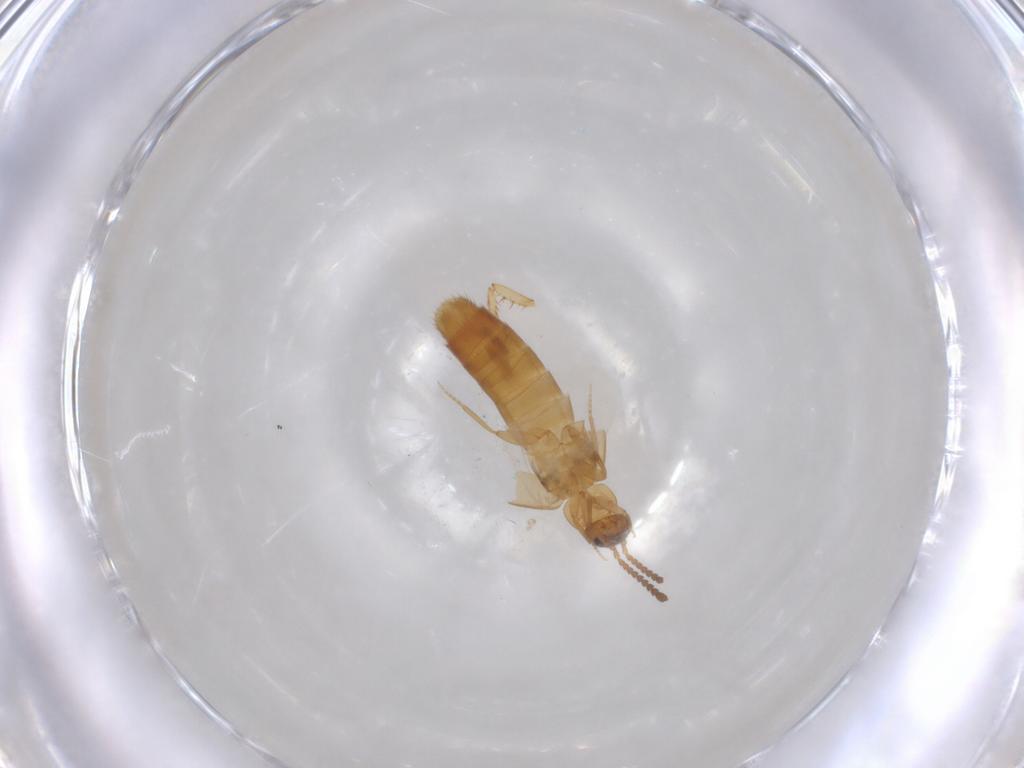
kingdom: Animalia
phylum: Arthropoda
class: Insecta
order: Coleoptera
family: Staphylinidae
